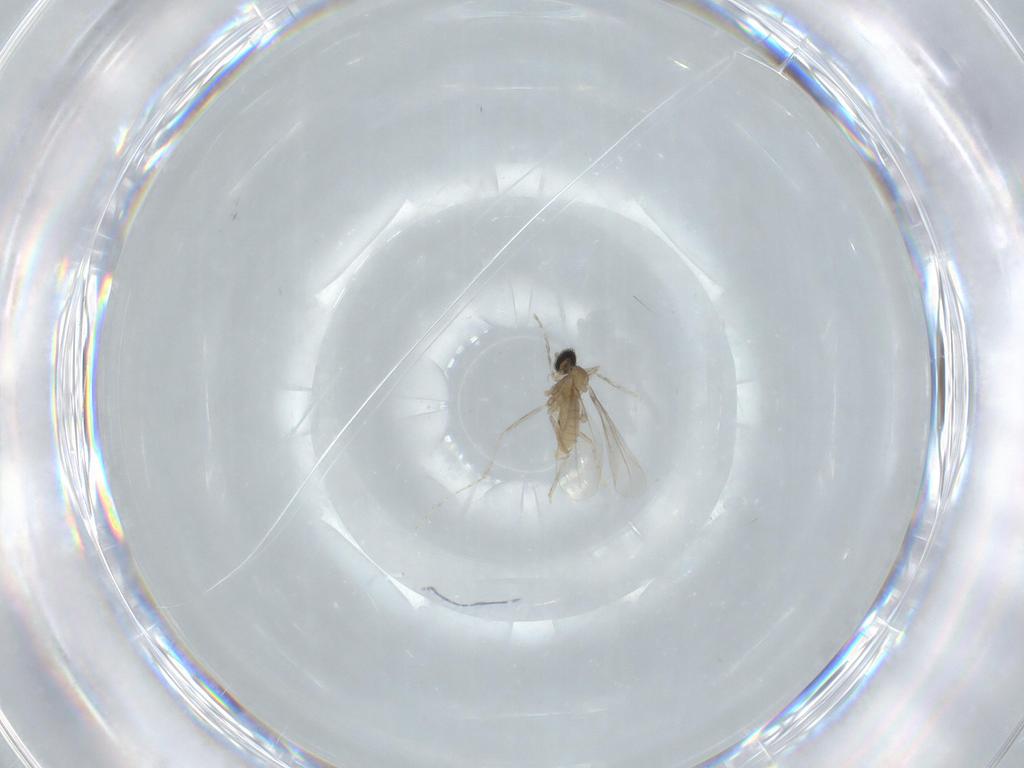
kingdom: Animalia
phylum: Arthropoda
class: Insecta
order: Diptera
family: Cecidomyiidae
